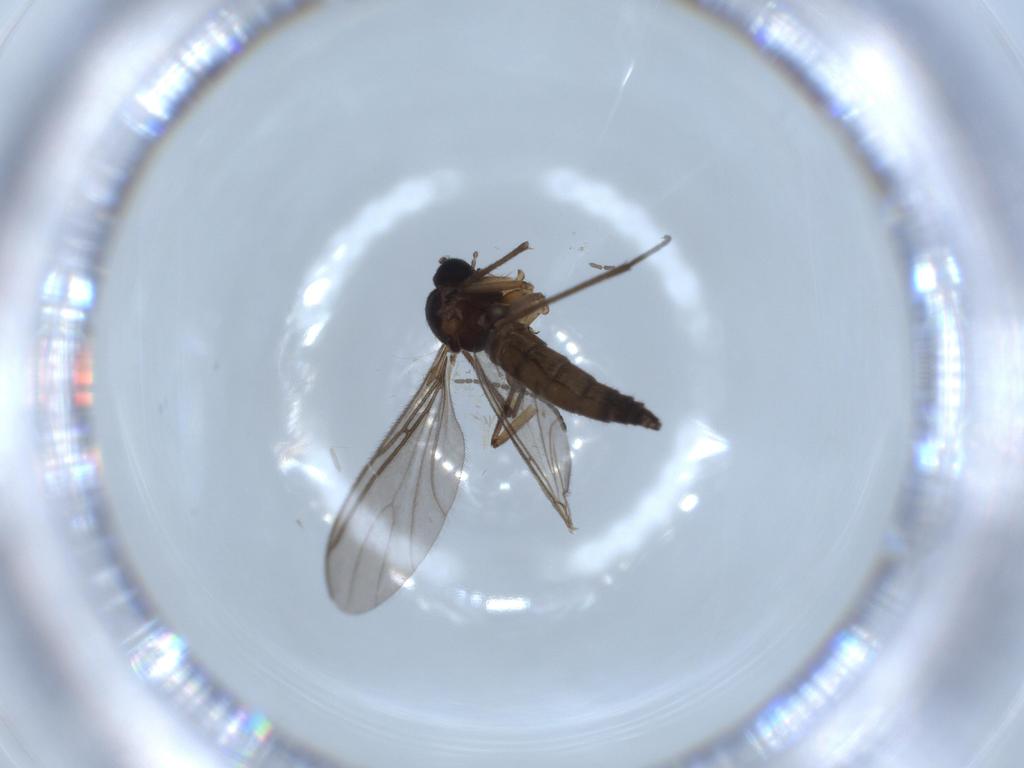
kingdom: Animalia
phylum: Arthropoda
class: Insecta
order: Diptera
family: Sciaridae
